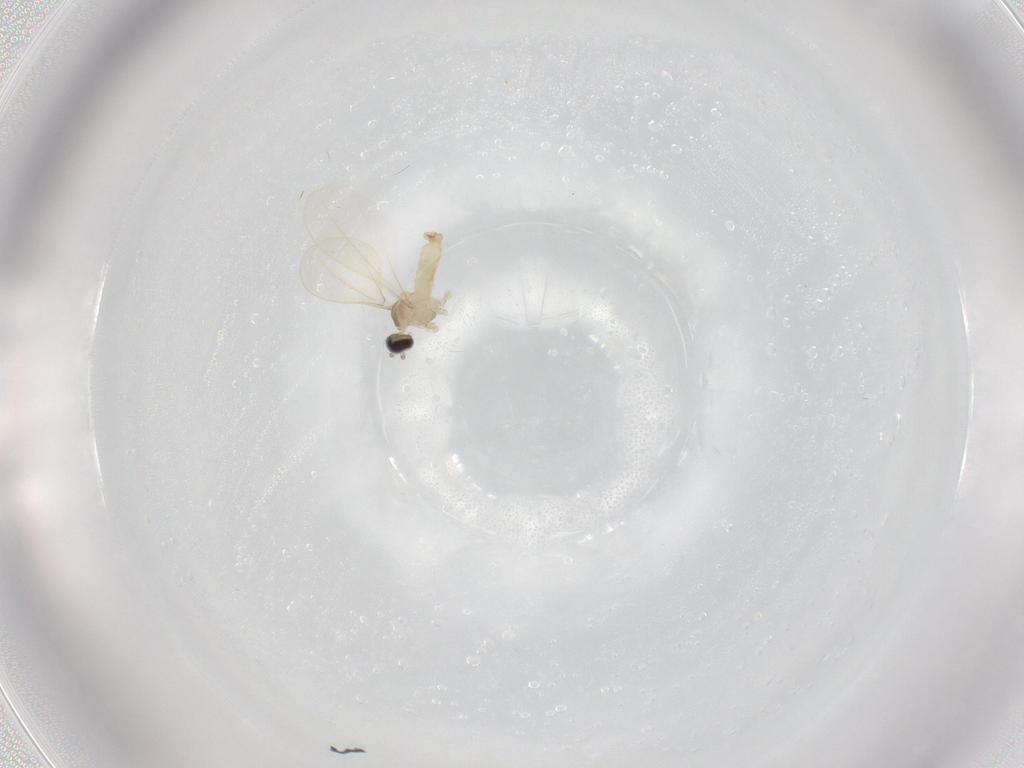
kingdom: Animalia
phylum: Arthropoda
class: Insecta
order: Diptera
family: Cecidomyiidae
